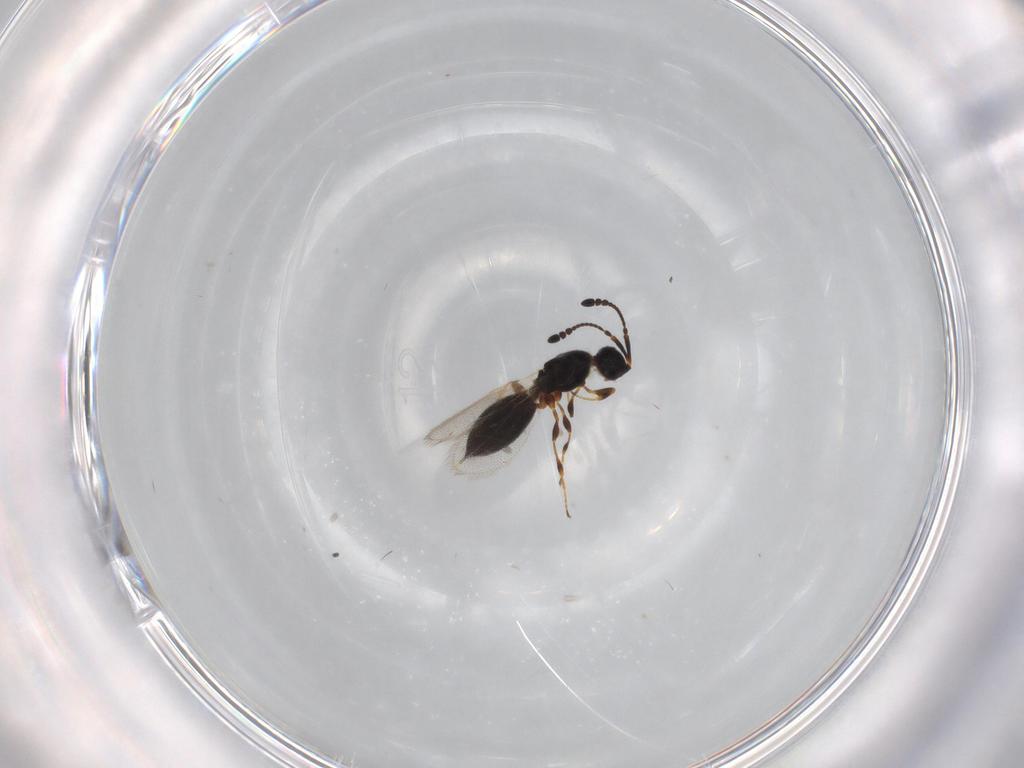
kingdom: Animalia
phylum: Arthropoda
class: Insecta
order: Hymenoptera
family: Diapriidae
